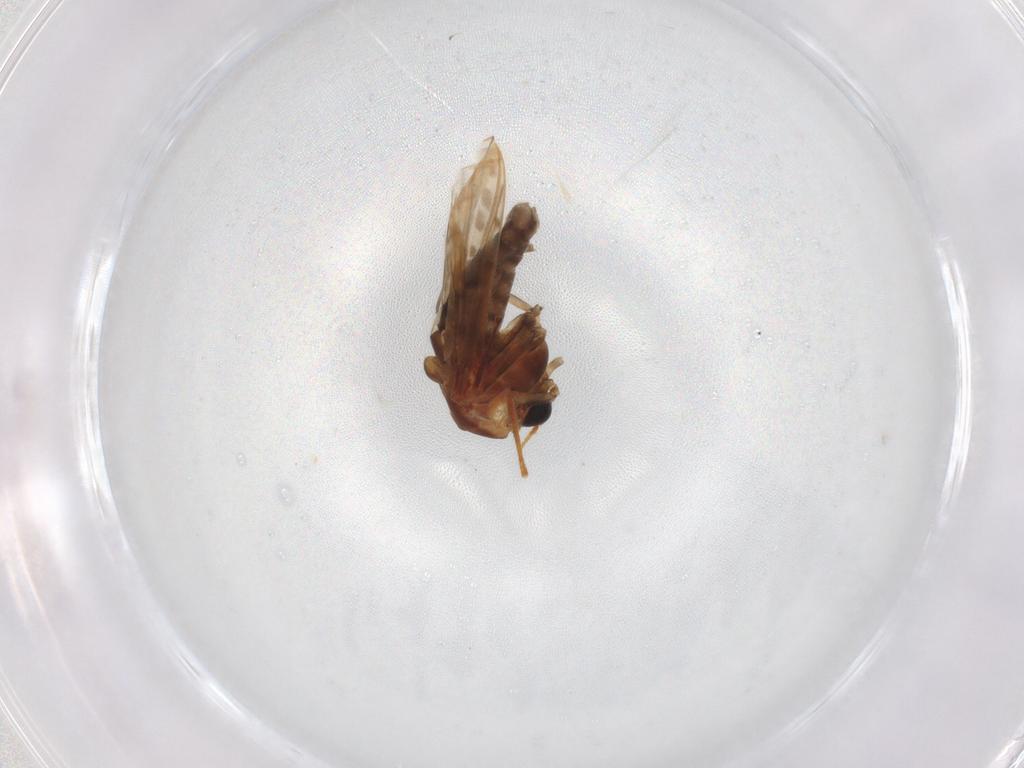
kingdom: Animalia
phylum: Arthropoda
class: Insecta
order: Diptera
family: Chironomidae
